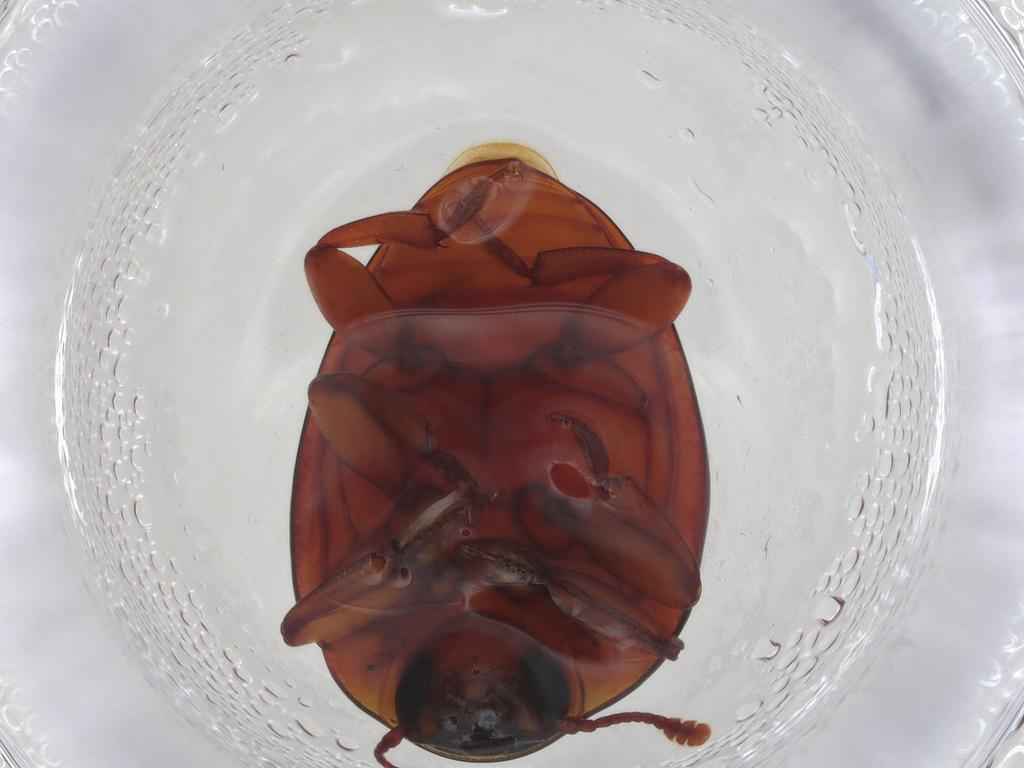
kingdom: Animalia
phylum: Arthropoda
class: Insecta
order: Coleoptera
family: Zopheridae
